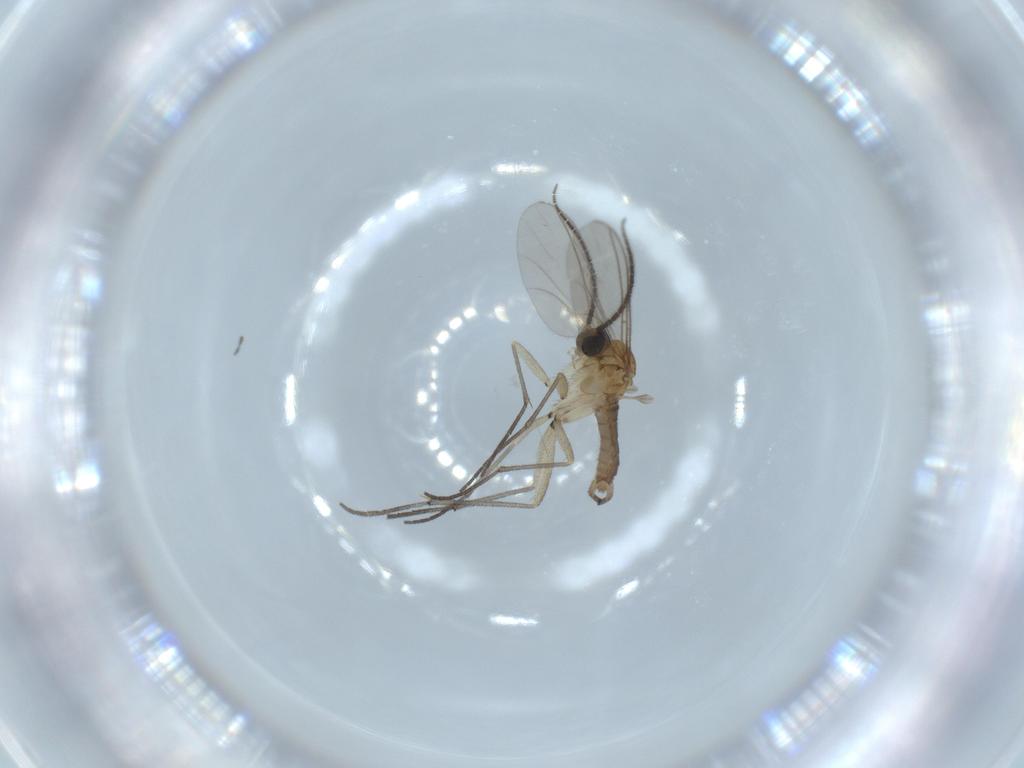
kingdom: Animalia
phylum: Arthropoda
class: Insecta
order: Diptera
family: Sciaridae
